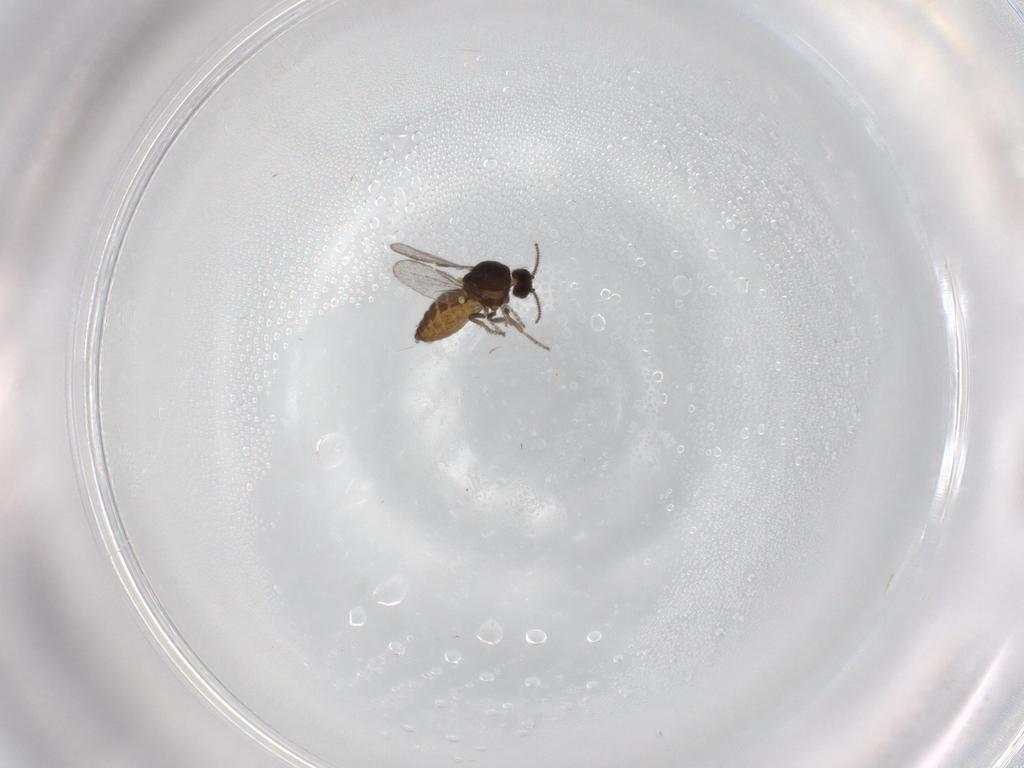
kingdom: Animalia
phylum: Arthropoda
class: Insecta
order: Diptera
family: Ceratopogonidae
